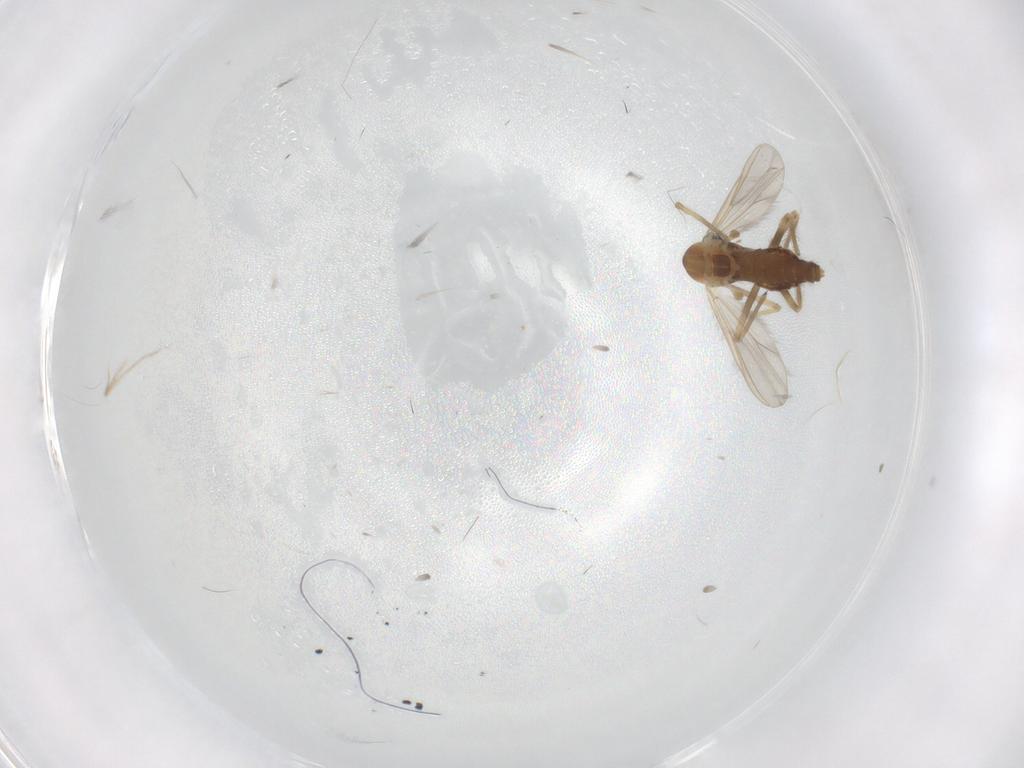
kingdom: Animalia
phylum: Arthropoda
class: Insecta
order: Diptera
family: Chironomidae
